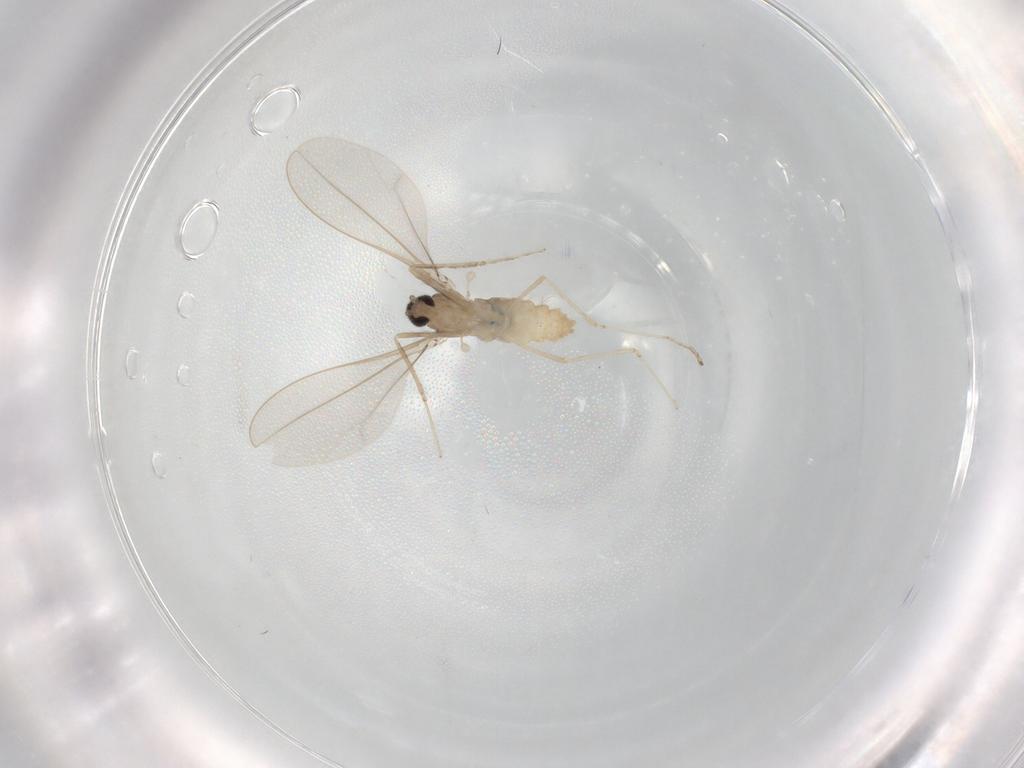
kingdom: Animalia
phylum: Arthropoda
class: Insecta
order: Diptera
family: Cecidomyiidae
